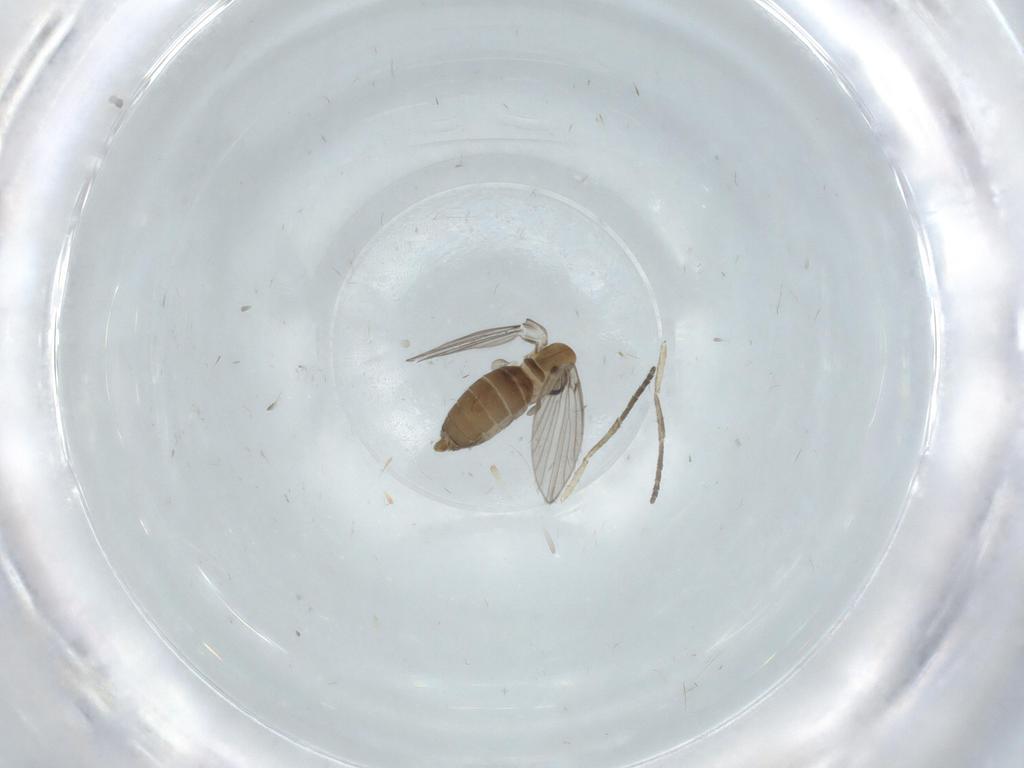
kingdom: Animalia
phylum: Arthropoda
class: Insecta
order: Diptera
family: Psychodidae
